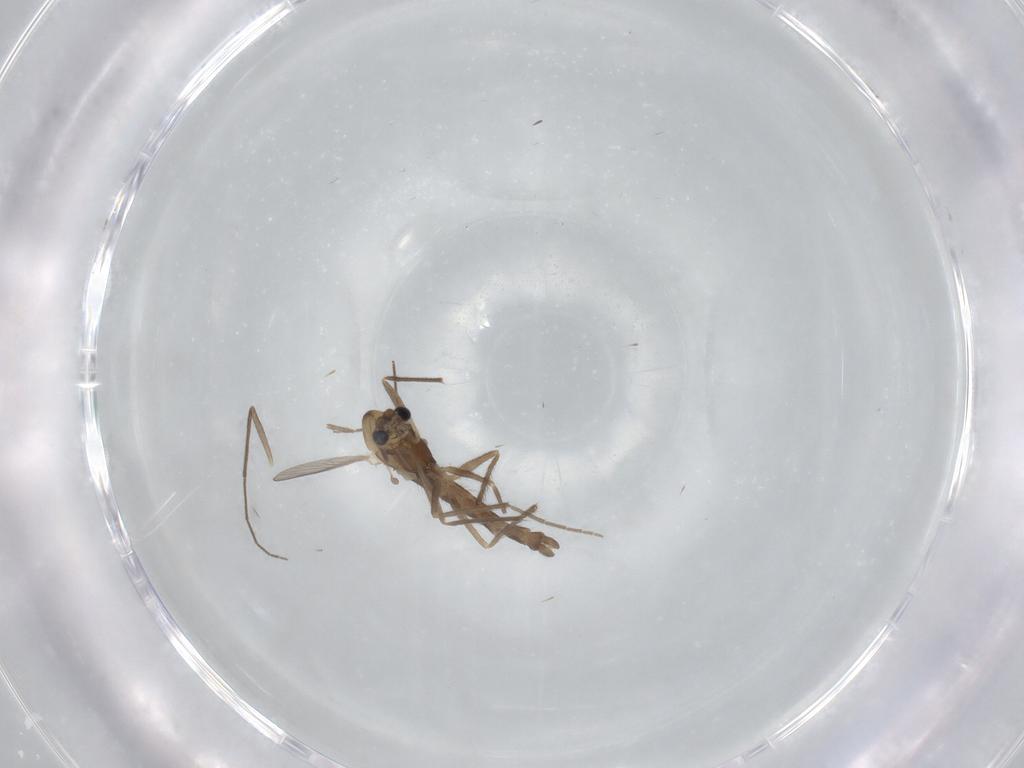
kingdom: Animalia
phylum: Arthropoda
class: Insecta
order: Diptera
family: Chironomidae
